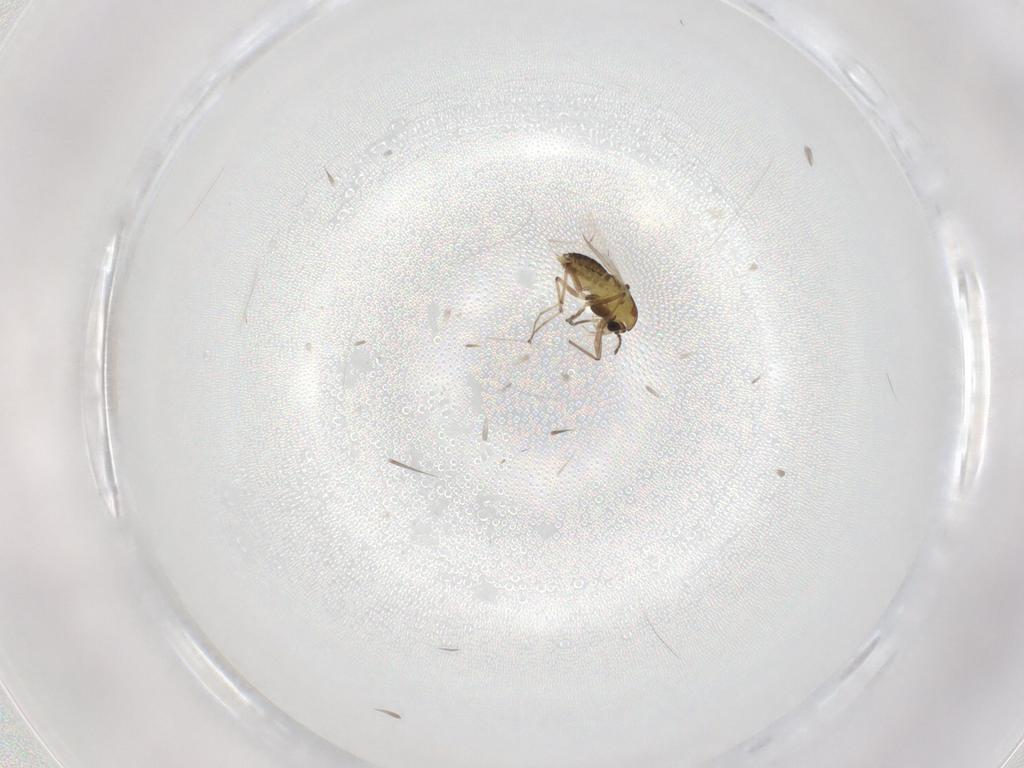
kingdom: Animalia
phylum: Arthropoda
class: Insecta
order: Diptera
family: Chironomidae
